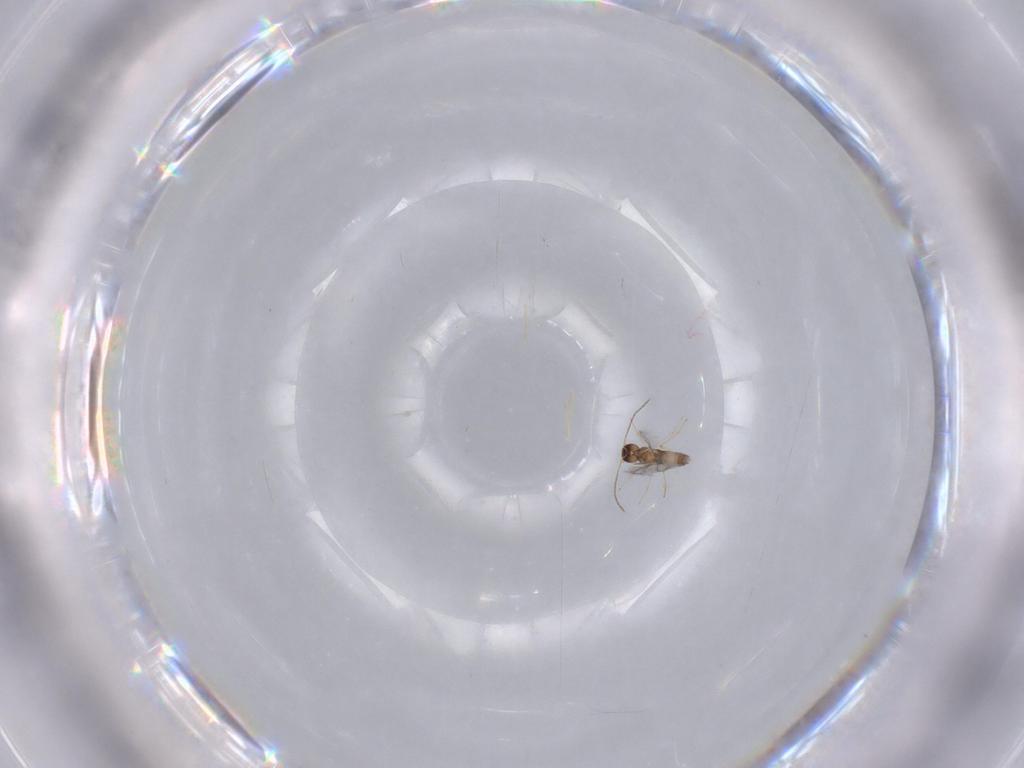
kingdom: Animalia
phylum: Arthropoda
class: Insecta
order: Hymenoptera
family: Mymaridae
